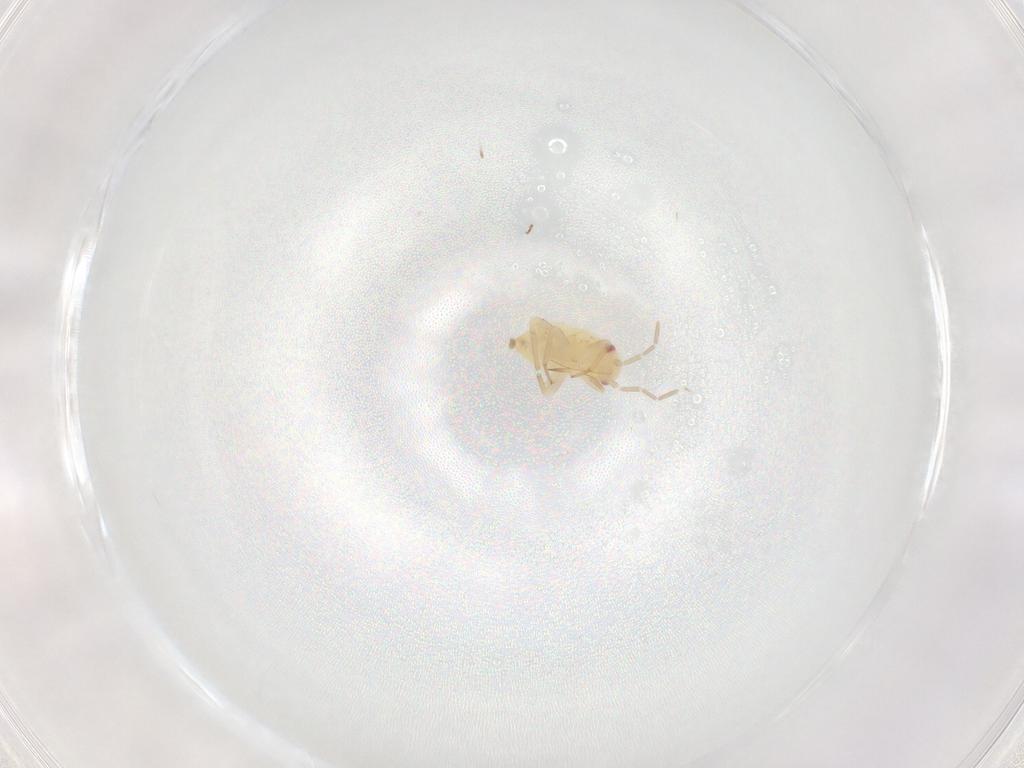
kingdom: Animalia
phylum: Arthropoda
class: Insecta
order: Hemiptera
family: Miridae
